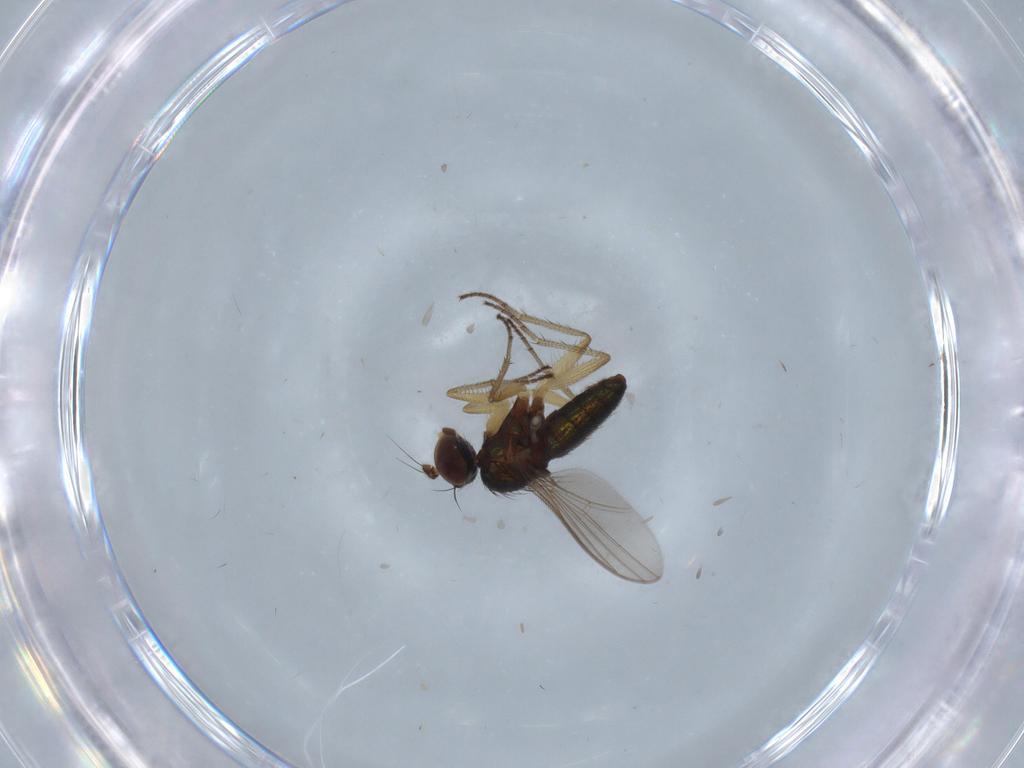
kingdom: Animalia
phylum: Arthropoda
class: Insecta
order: Diptera
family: Dolichopodidae
